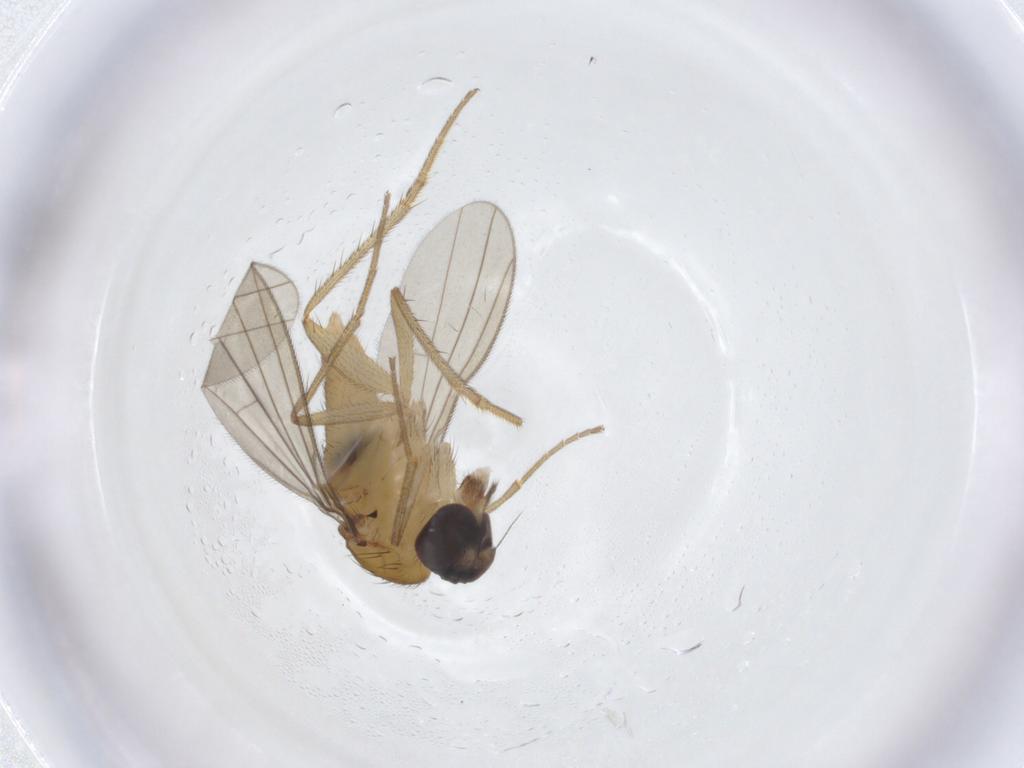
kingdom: Animalia
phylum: Arthropoda
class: Insecta
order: Diptera
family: Dolichopodidae
